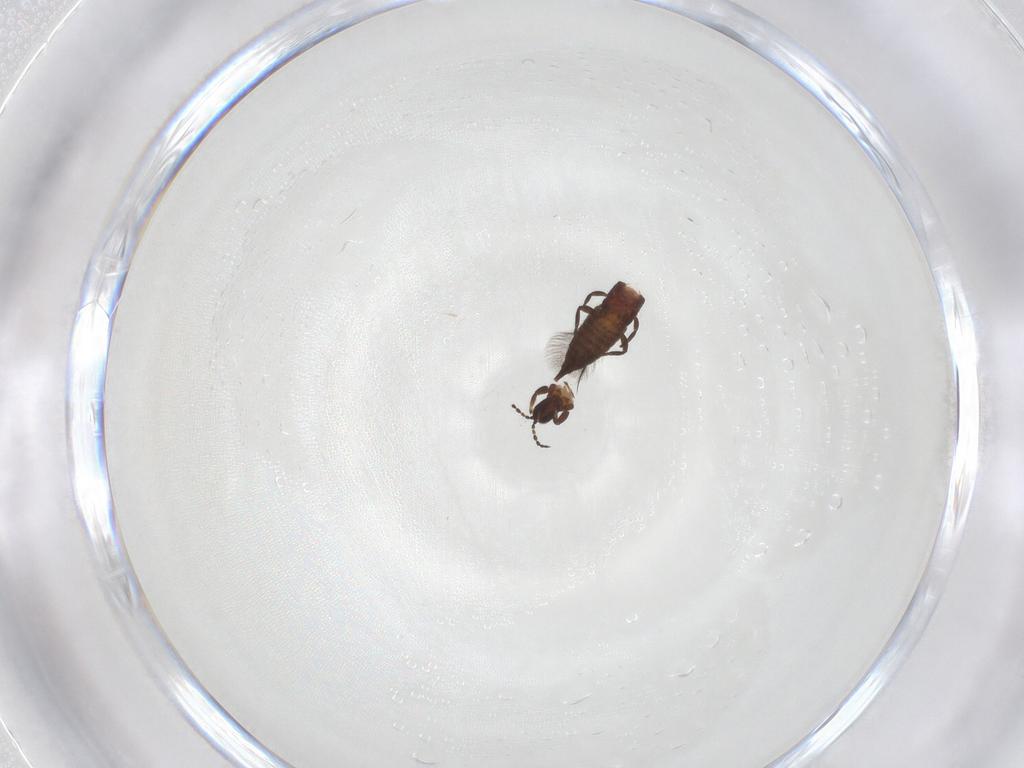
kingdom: Animalia
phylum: Arthropoda
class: Insecta
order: Thysanoptera
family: Phlaeothripidae
